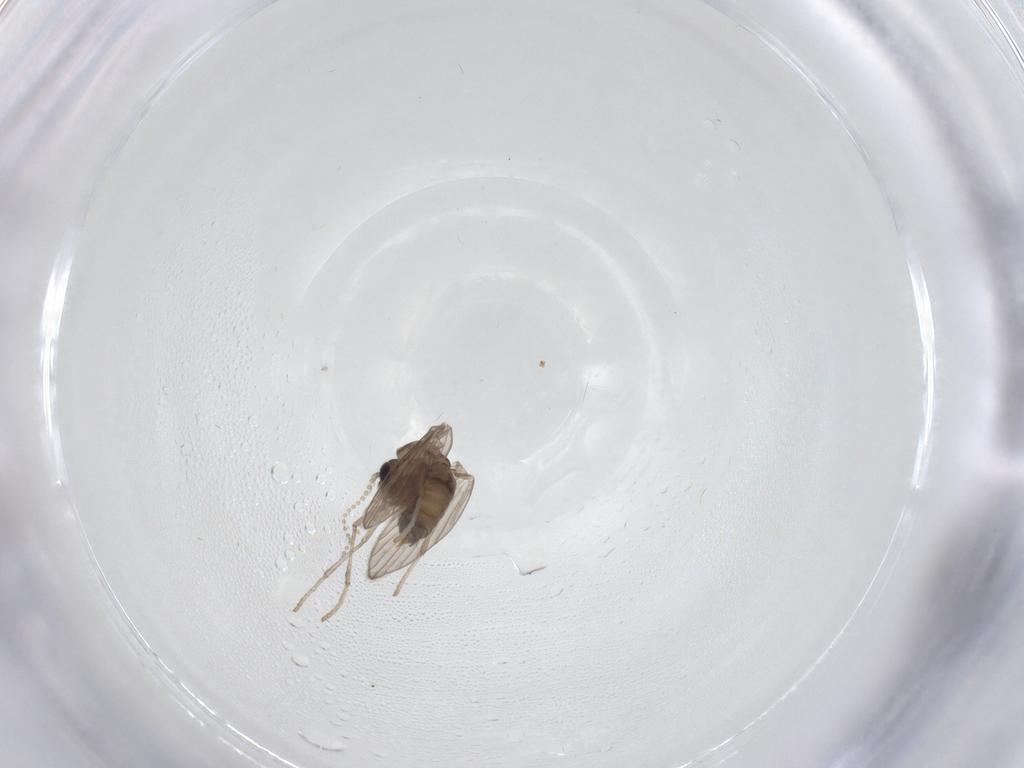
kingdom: Animalia
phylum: Arthropoda
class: Insecta
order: Diptera
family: Psychodidae
